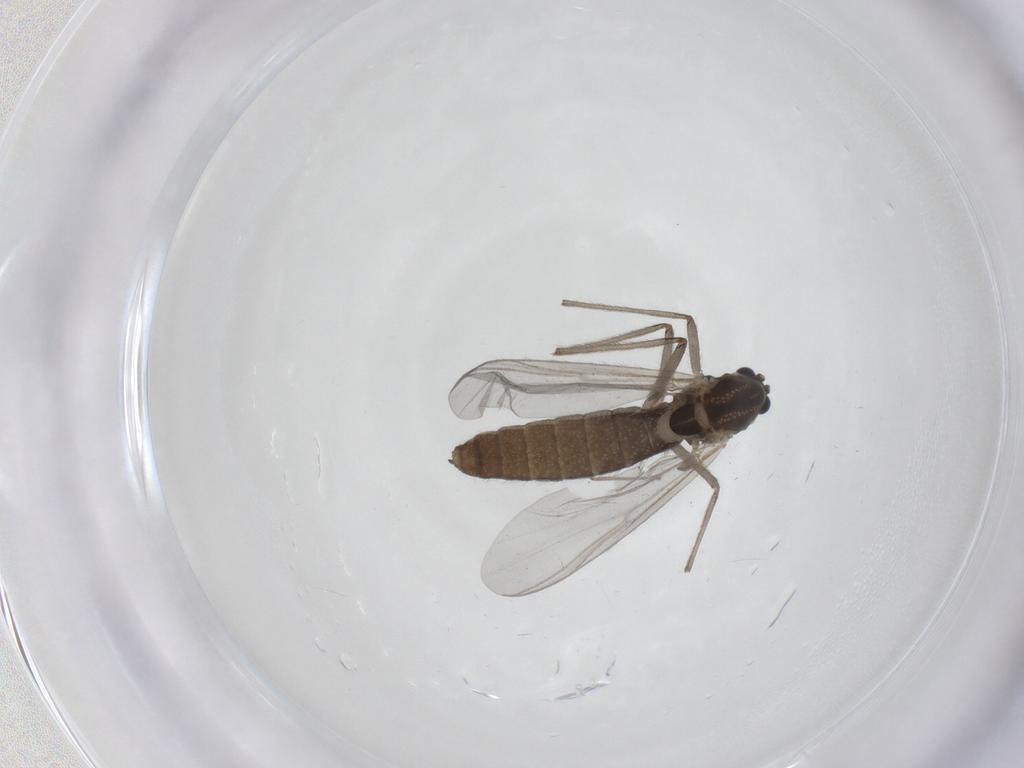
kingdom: Animalia
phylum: Arthropoda
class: Insecta
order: Diptera
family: Chironomidae
